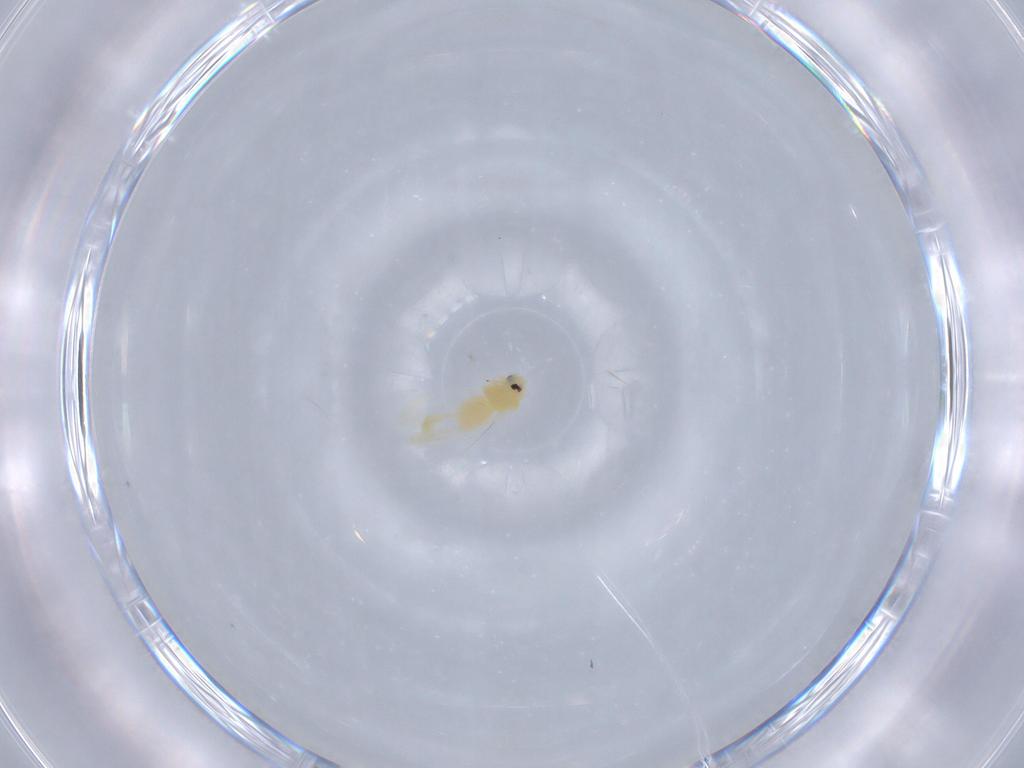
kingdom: Animalia
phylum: Arthropoda
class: Insecta
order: Hemiptera
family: Aleyrodidae
